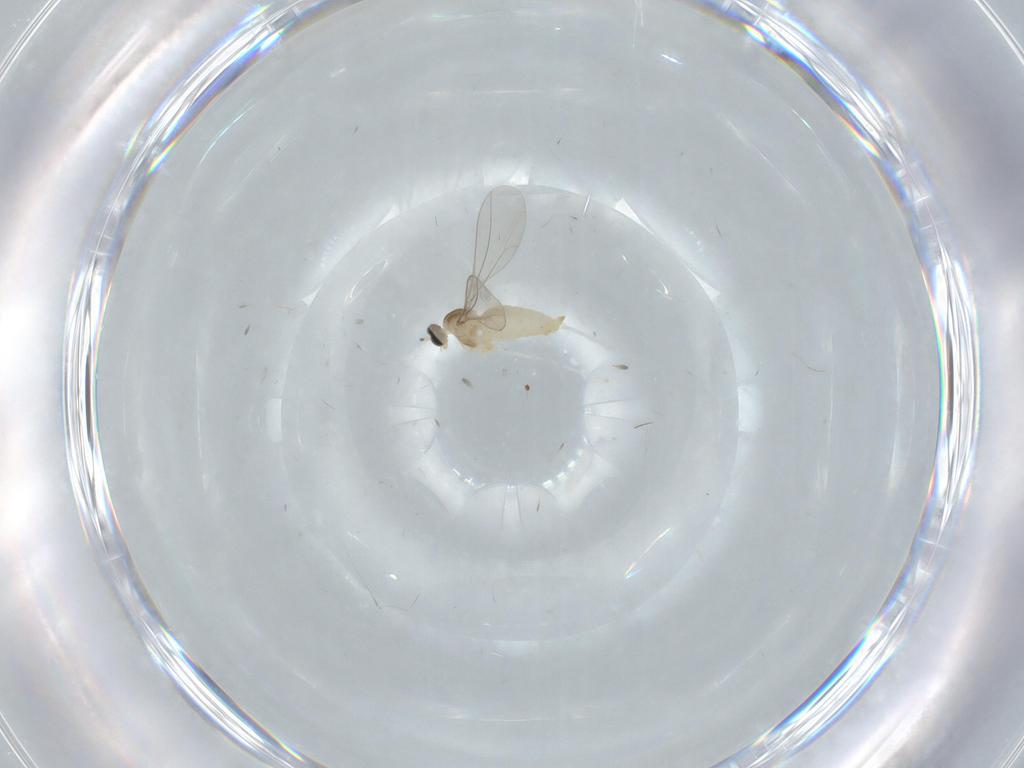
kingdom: Animalia
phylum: Arthropoda
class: Insecta
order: Diptera
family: Cecidomyiidae
